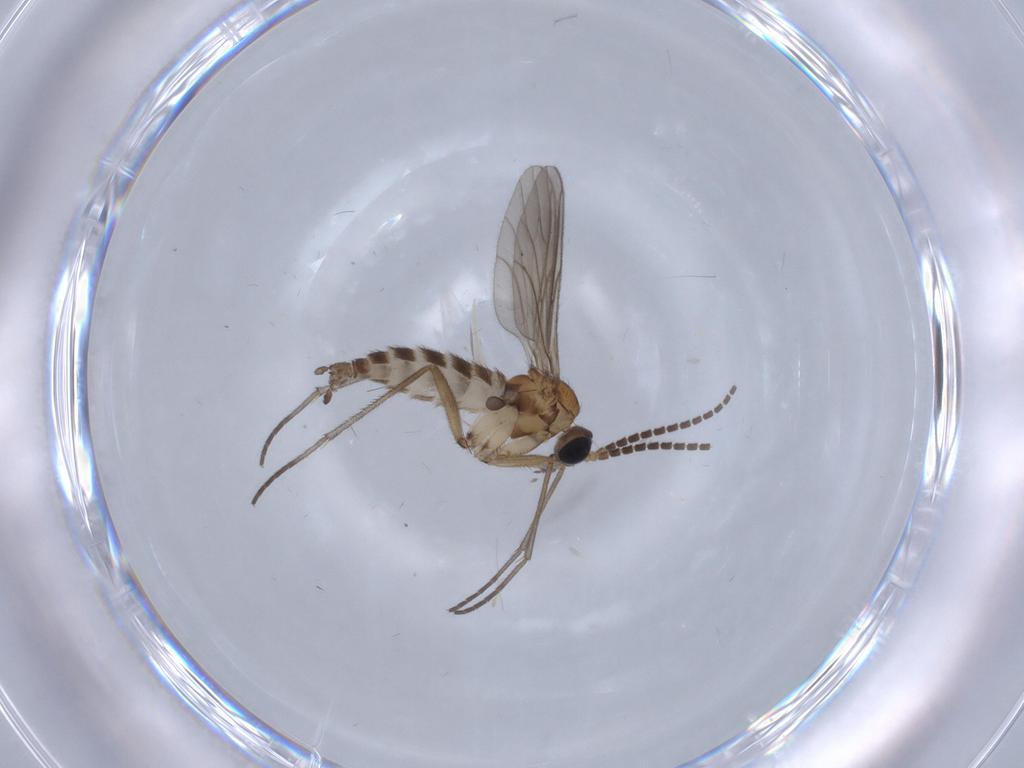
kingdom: Animalia
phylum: Arthropoda
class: Insecta
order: Diptera
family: Sciaridae
